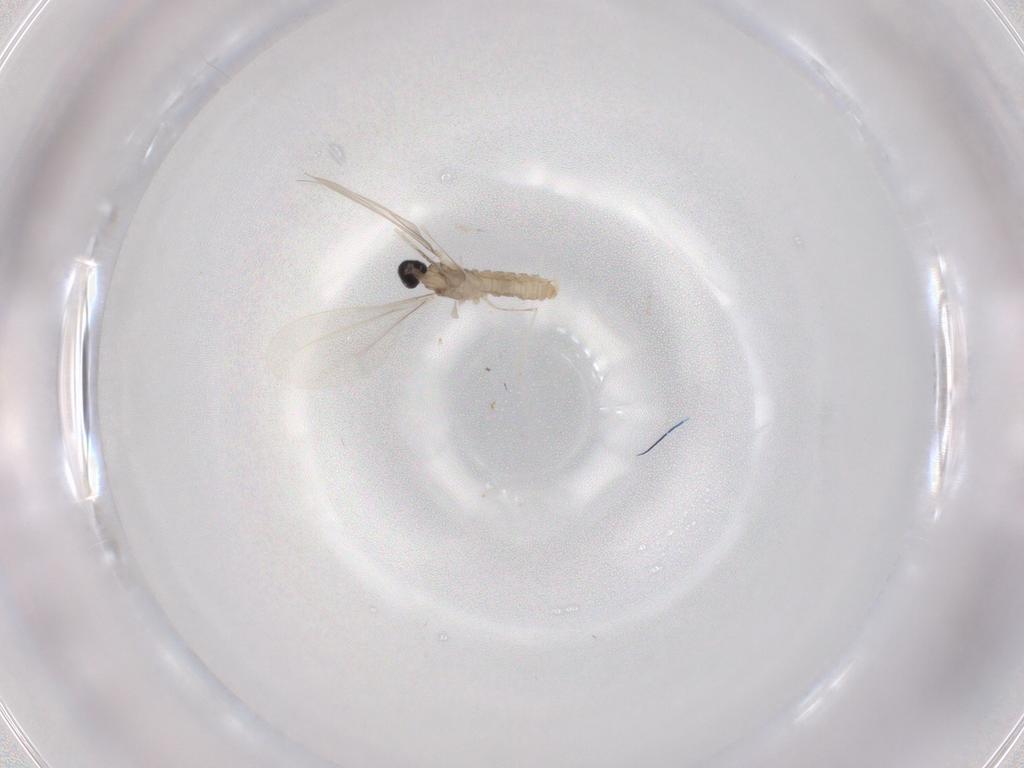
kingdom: Animalia
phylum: Arthropoda
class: Insecta
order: Diptera
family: Cecidomyiidae
